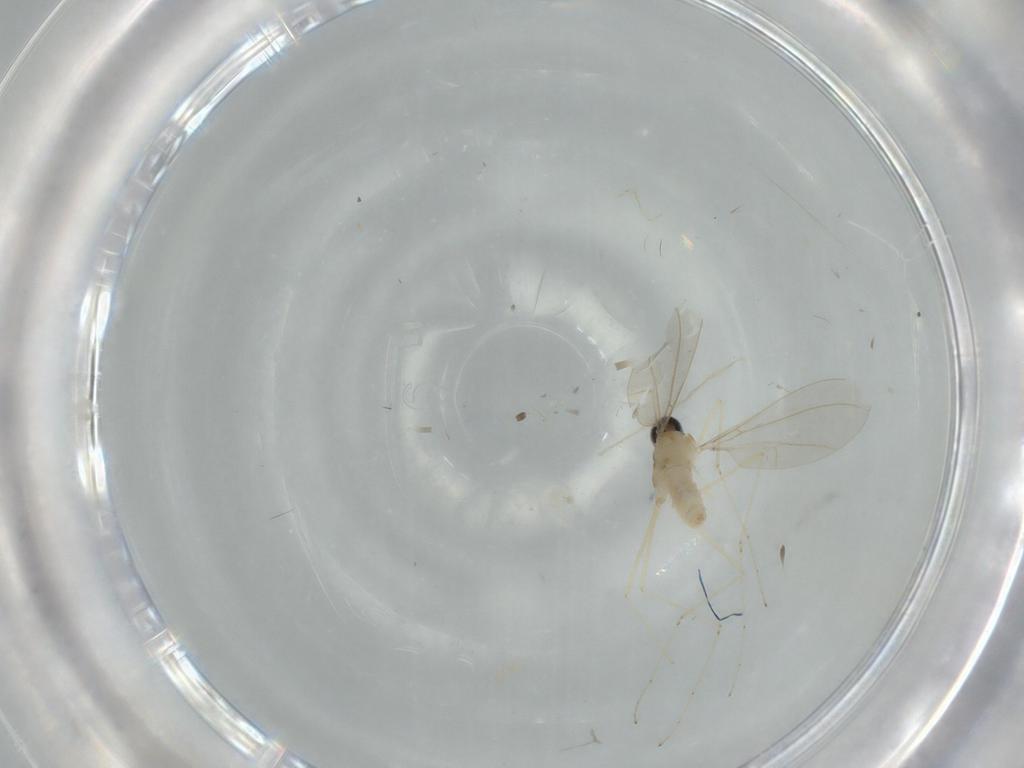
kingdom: Animalia
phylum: Arthropoda
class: Insecta
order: Diptera
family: Cecidomyiidae
